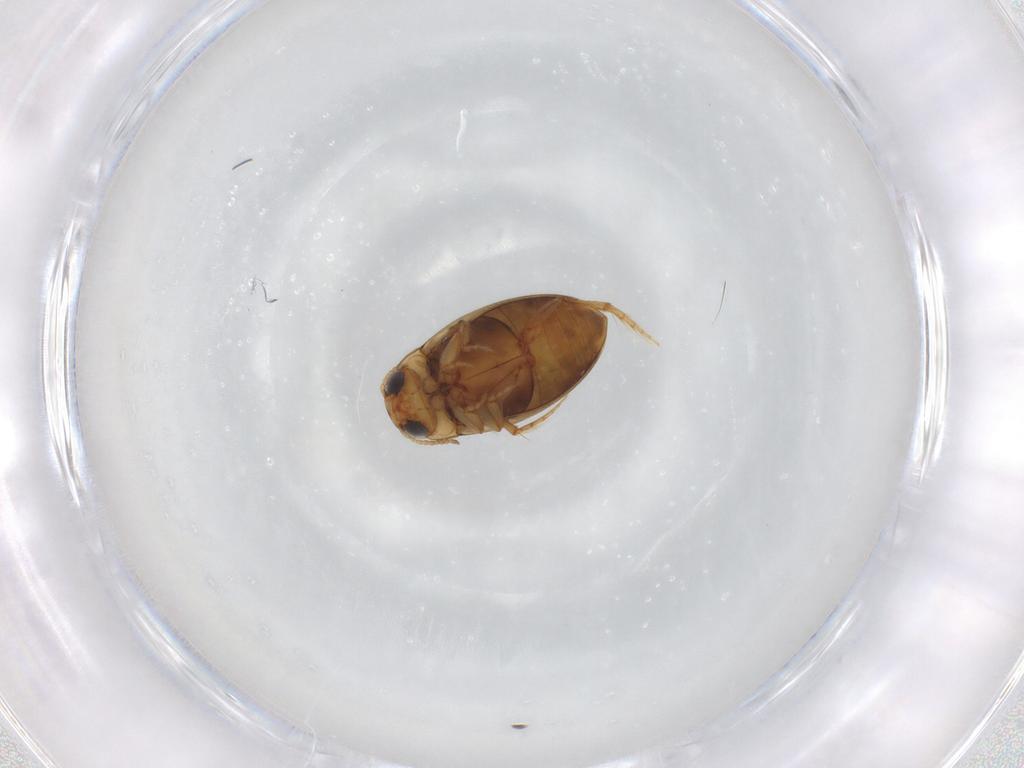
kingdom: Animalia
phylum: Arthropoda
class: Insecta
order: Coleoptera
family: Dytiscidae
